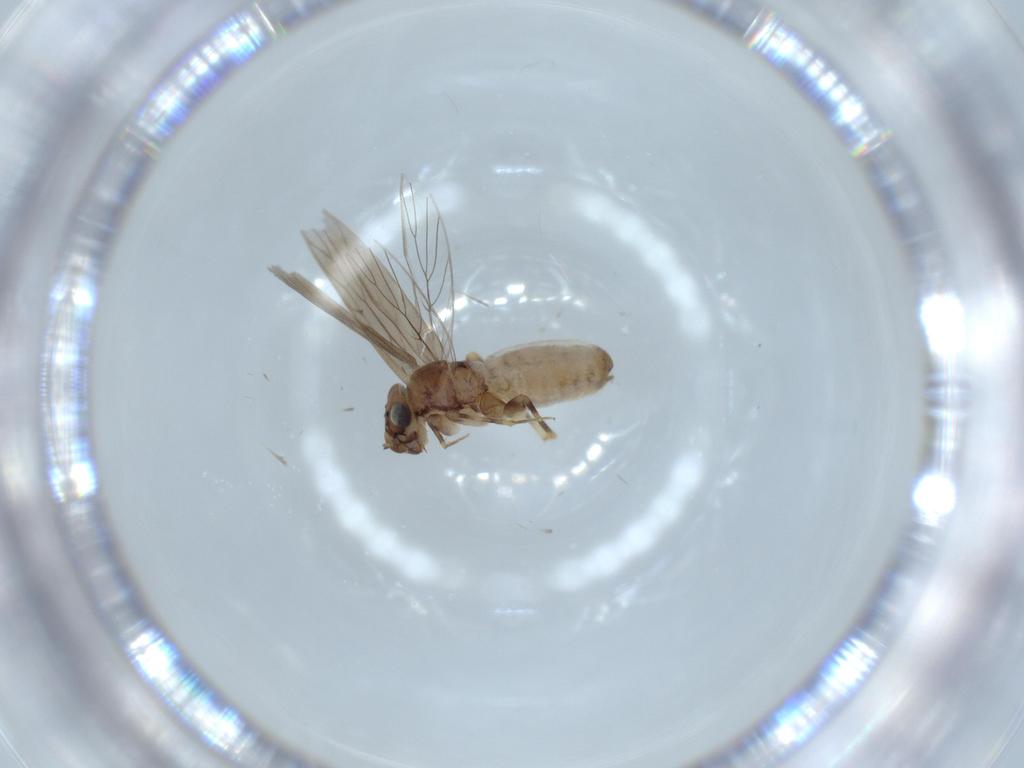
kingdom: Animalia
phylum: Arthropoda
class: Insecta
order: Psocodea
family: Lepidopsocidae
